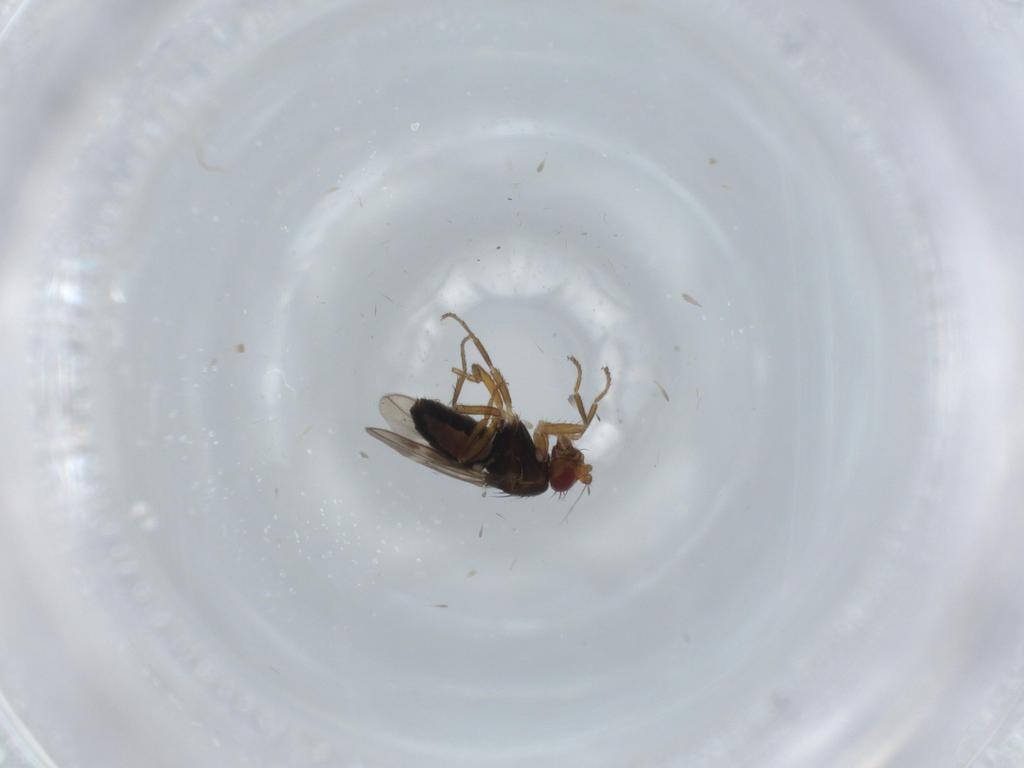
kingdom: Animalia
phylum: Arthropoda
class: Insecta
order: Diptera
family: Sphaeroceridae
